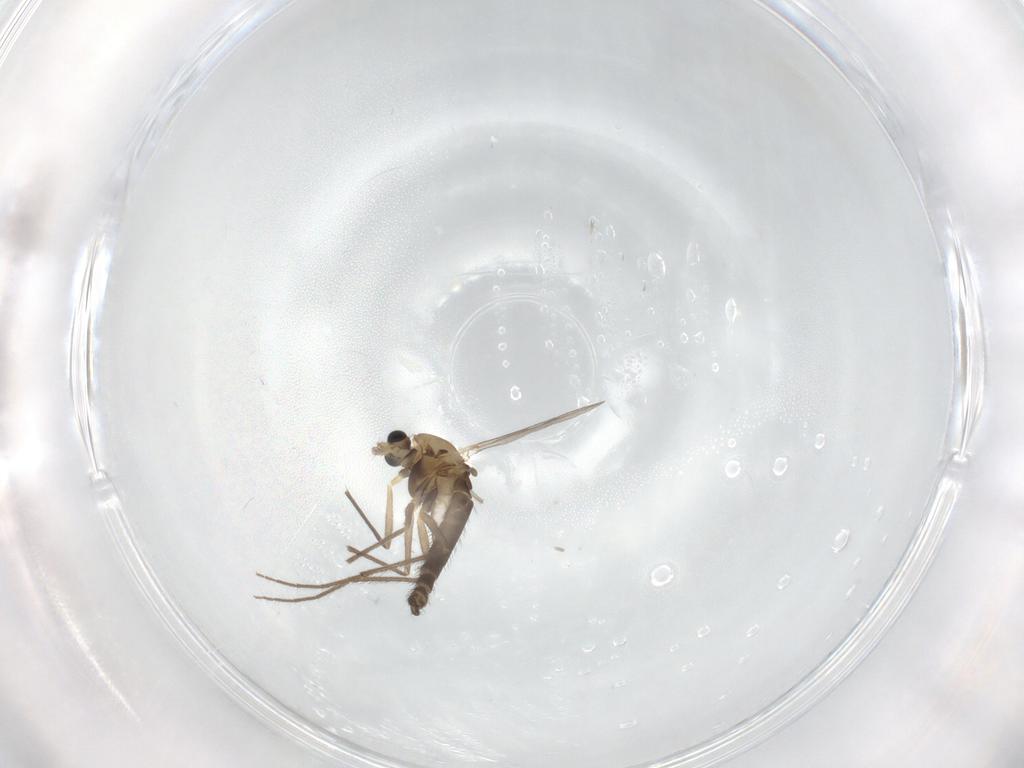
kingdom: Animalia
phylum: Arthropoda
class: Insecta
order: Diptera
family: Chironomidae
